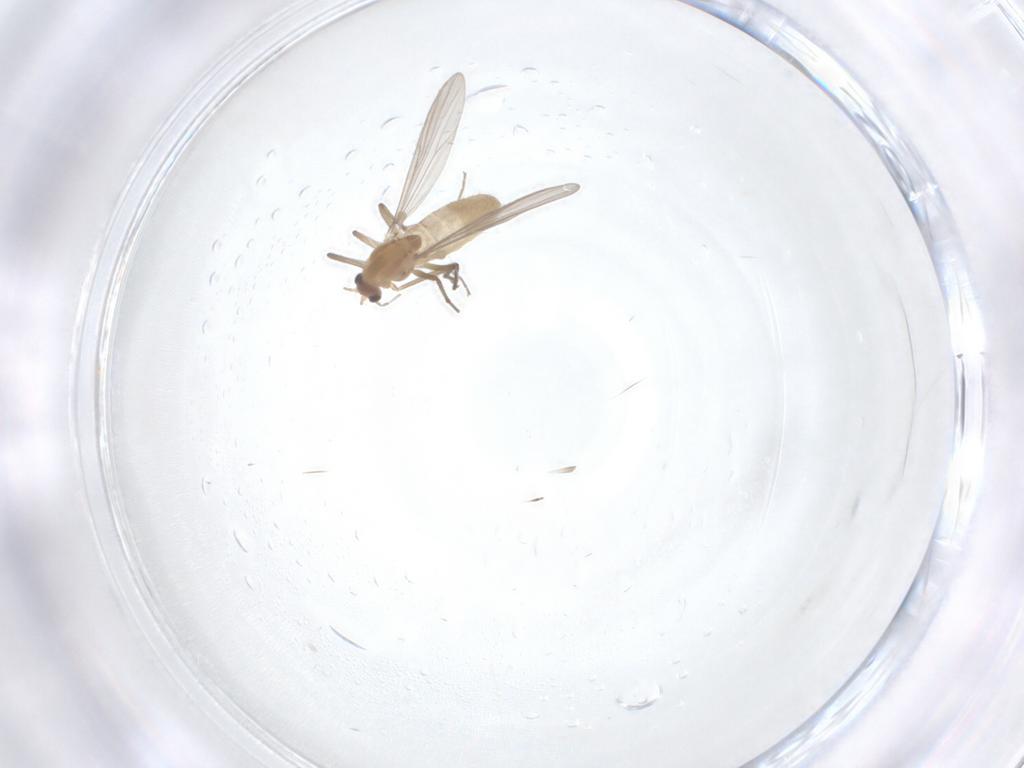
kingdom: Animalia
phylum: Arthropoda
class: Insecta
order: Diptera
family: Chironomidae
